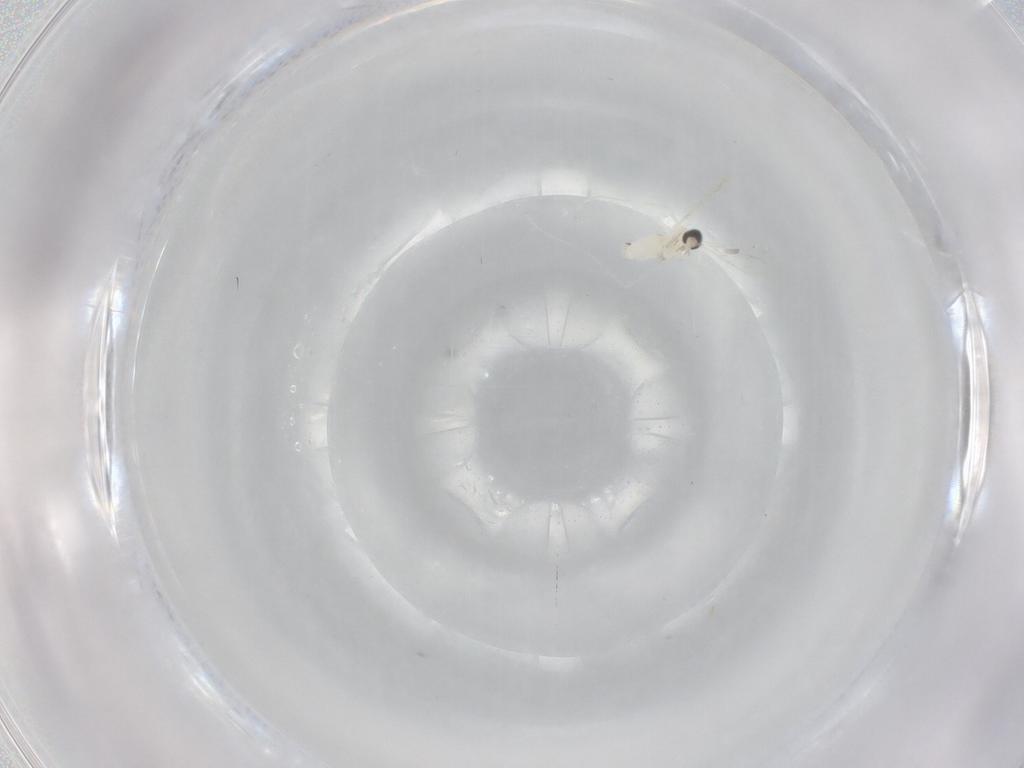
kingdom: Animalia
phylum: Arthropoda
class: Insecta
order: Diptera
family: Cecidomyiidae
